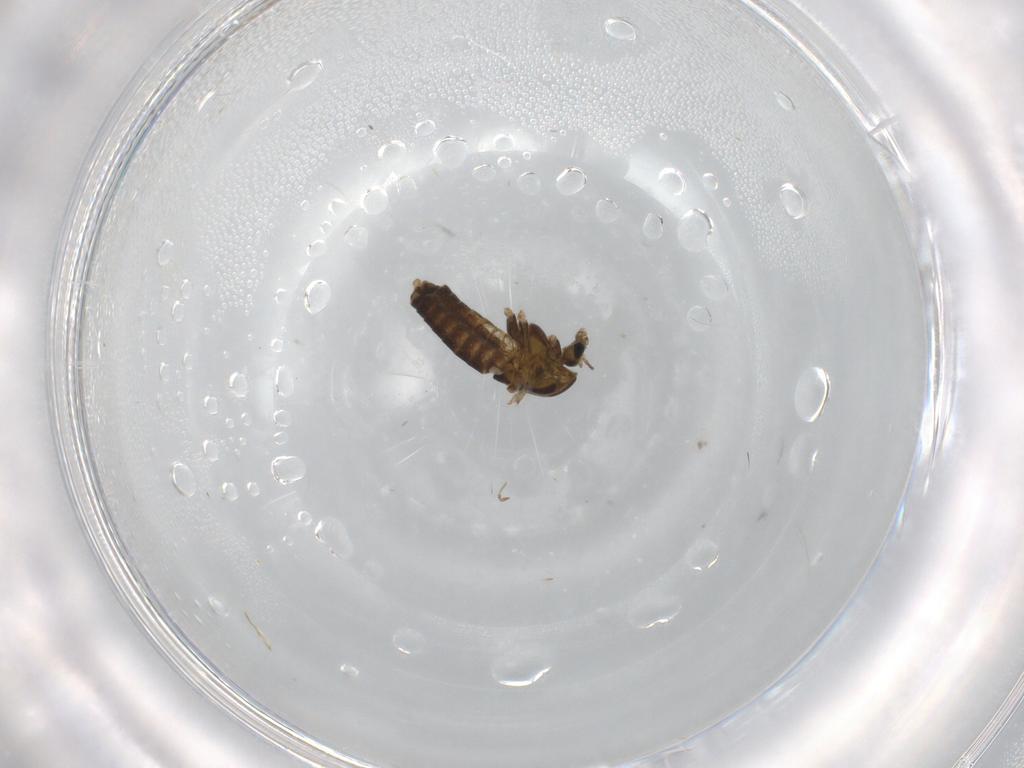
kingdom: Animalia
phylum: Arthropoda
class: Insecta
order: Diptera
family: Chironomidae
